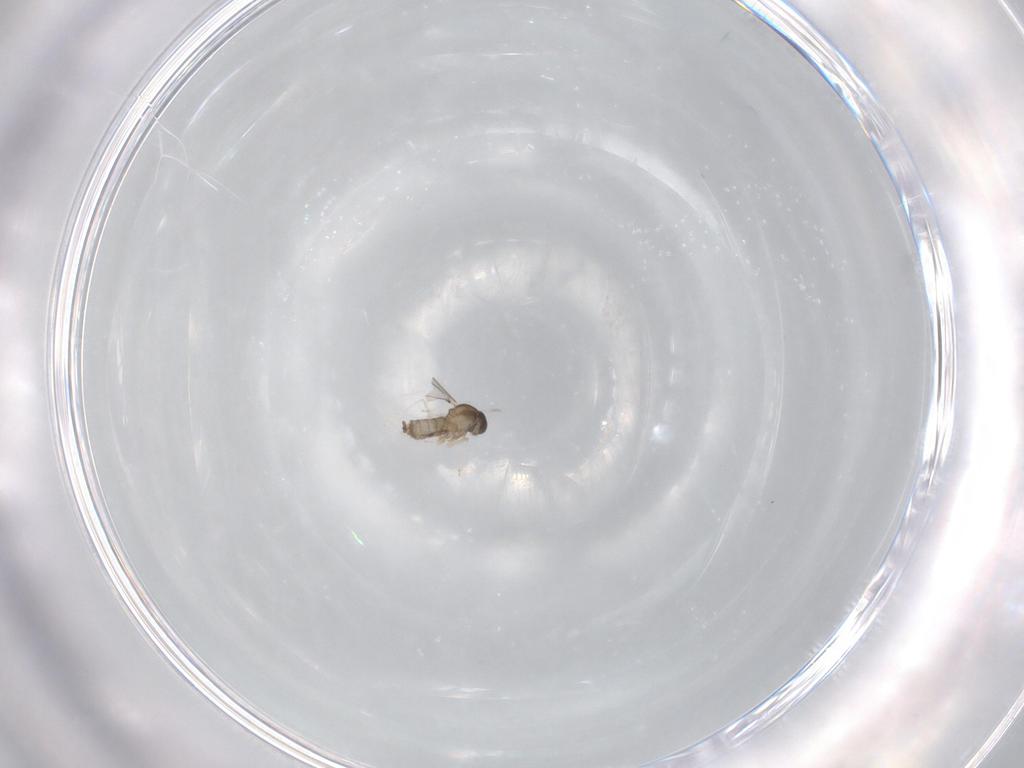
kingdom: Animalia
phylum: Arthropoda
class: Insecta
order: Diptera
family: Cecidomyiidae
